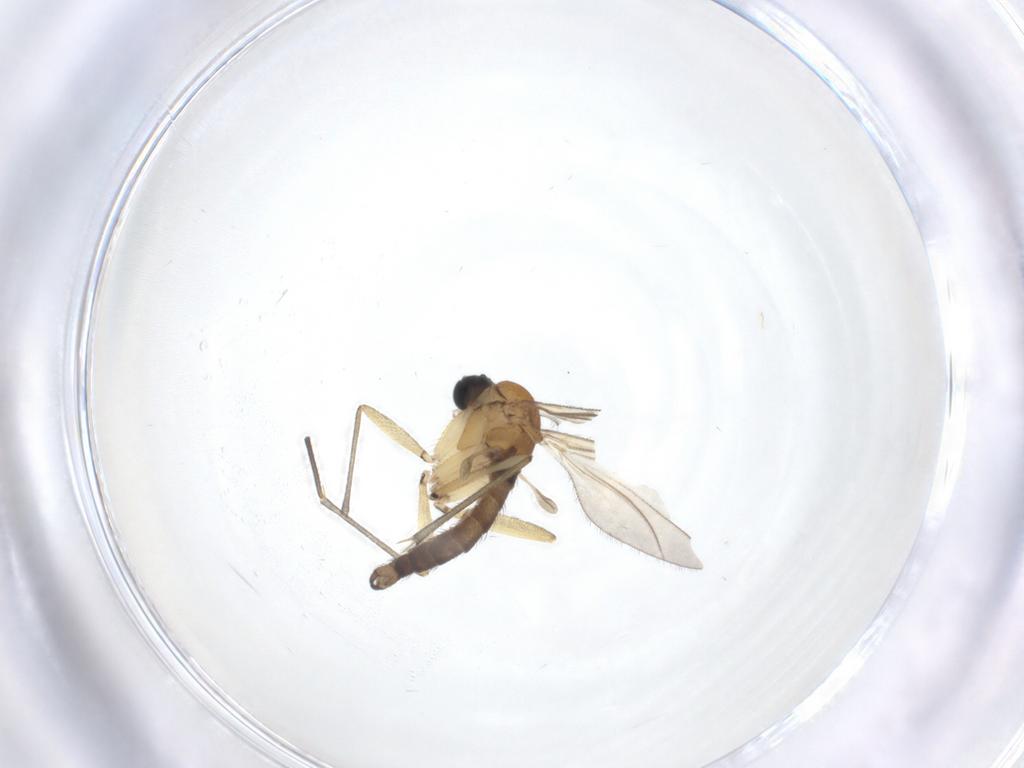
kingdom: Animalia
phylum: Arthropoda
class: Insecta
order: Diptera
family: Sciaridae
